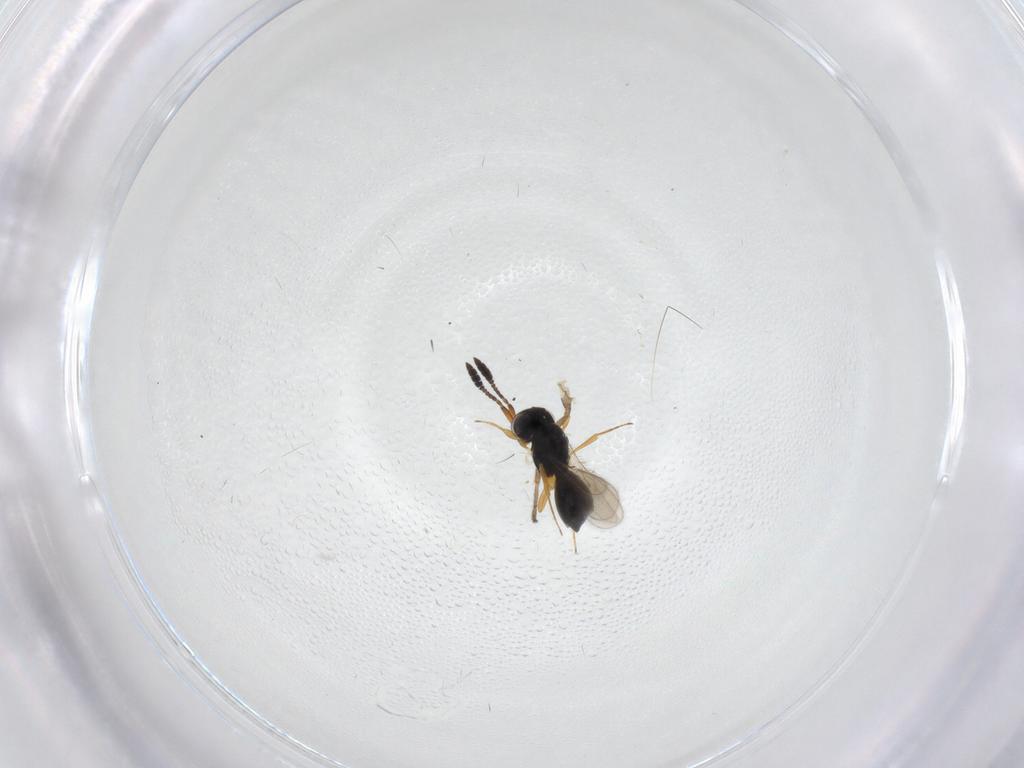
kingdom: Animalia
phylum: Arthropoda
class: Insecta
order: Hymenoptera
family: Scelionidae
